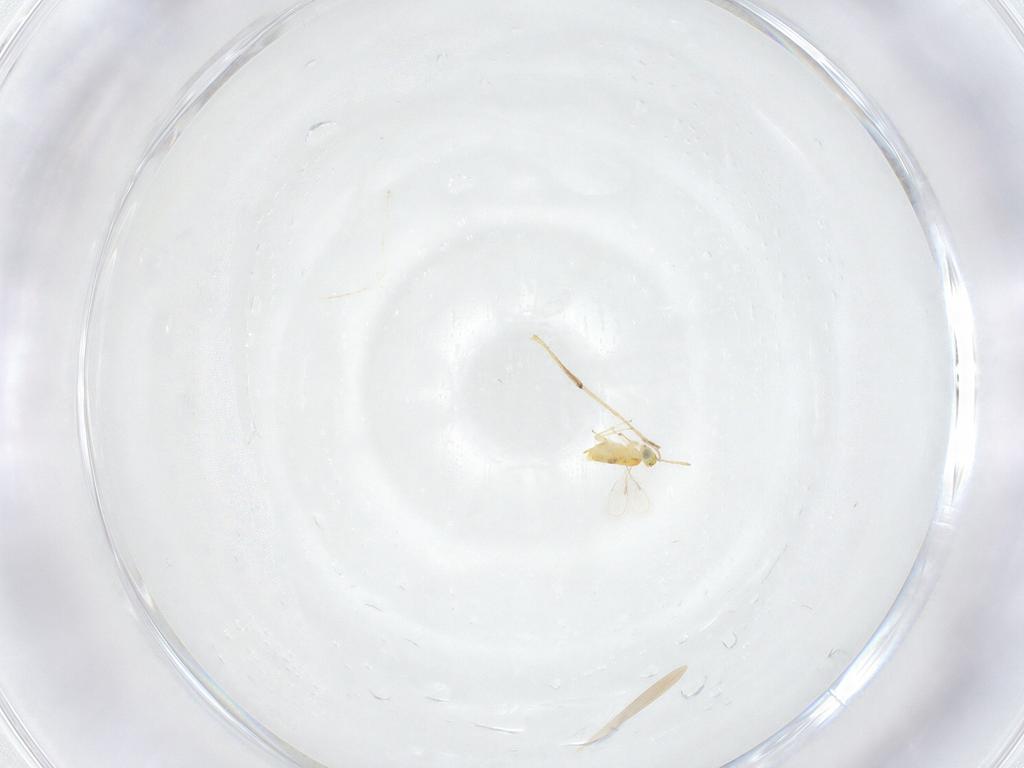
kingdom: Animalia
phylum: Arthropoda
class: Insecta
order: Hymenoptera
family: Aphelinidae
